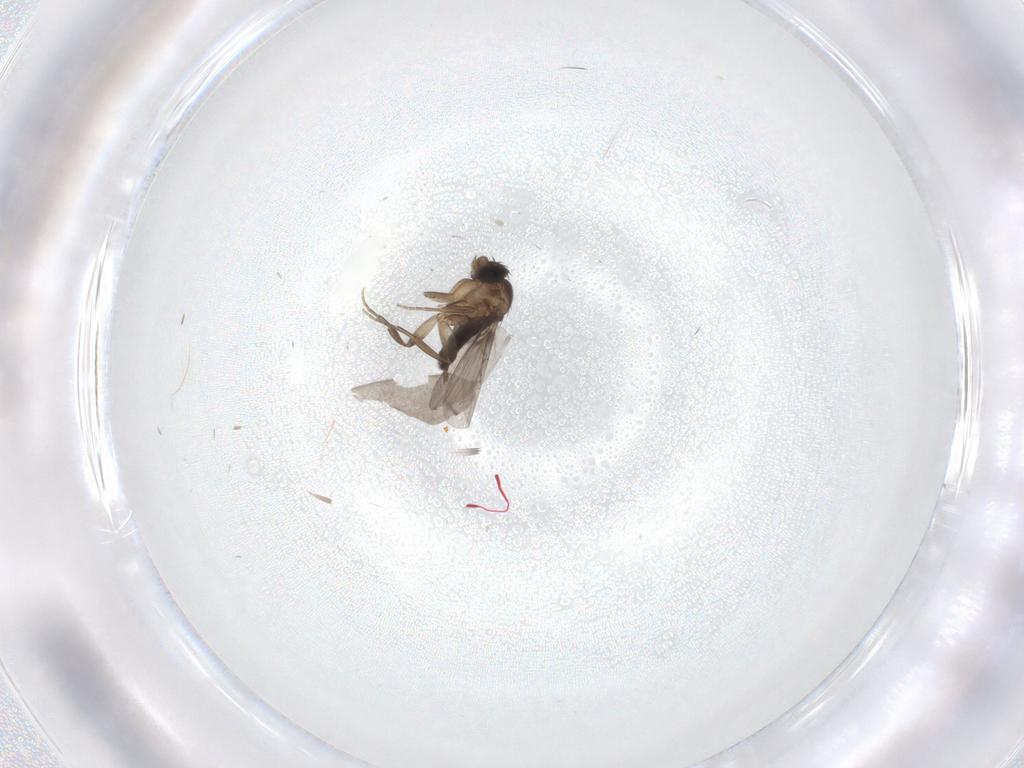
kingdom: Animalia
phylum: Arthropoda
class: Insecta
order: Diptera
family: Phoridae
